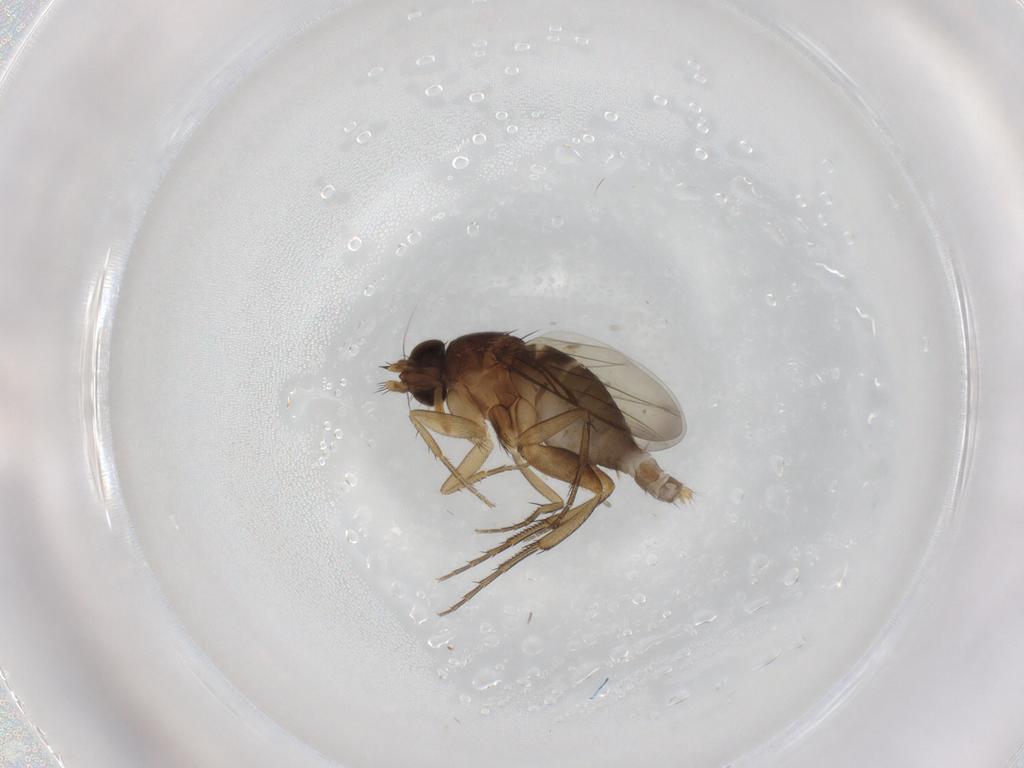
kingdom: Animalia
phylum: Arthropoda
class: Insecta
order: Diptera
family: Phoridae
